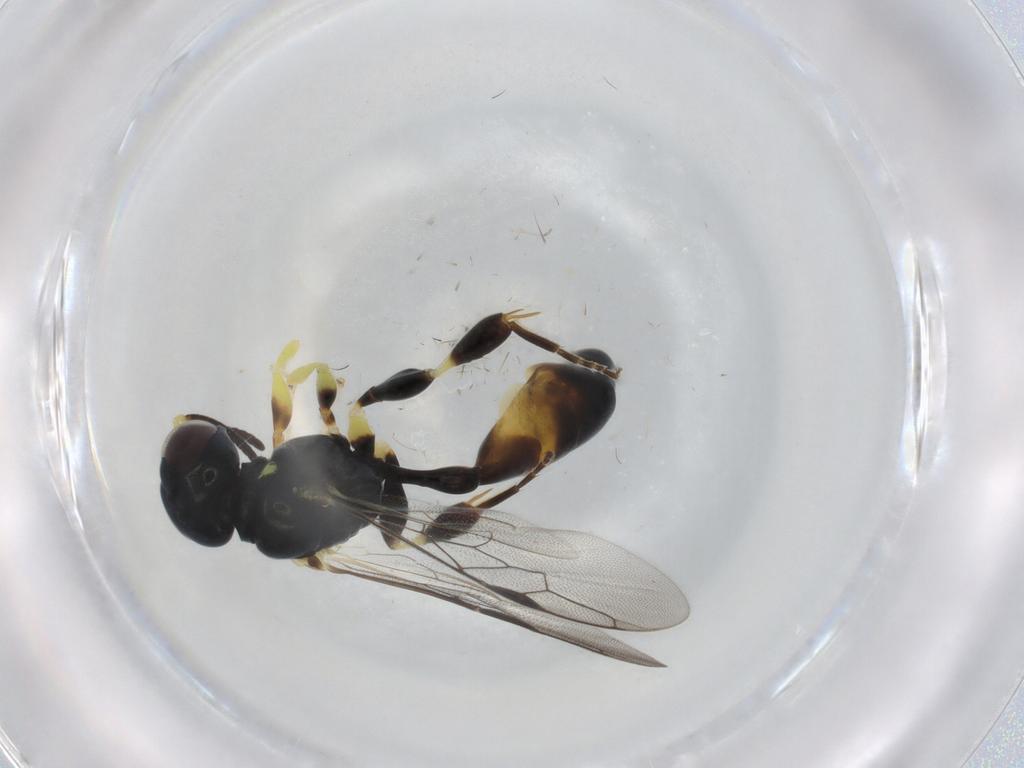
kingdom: Animalia
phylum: Arthropoda
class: Insecta
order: Hymenoptera
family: Crabronidae
